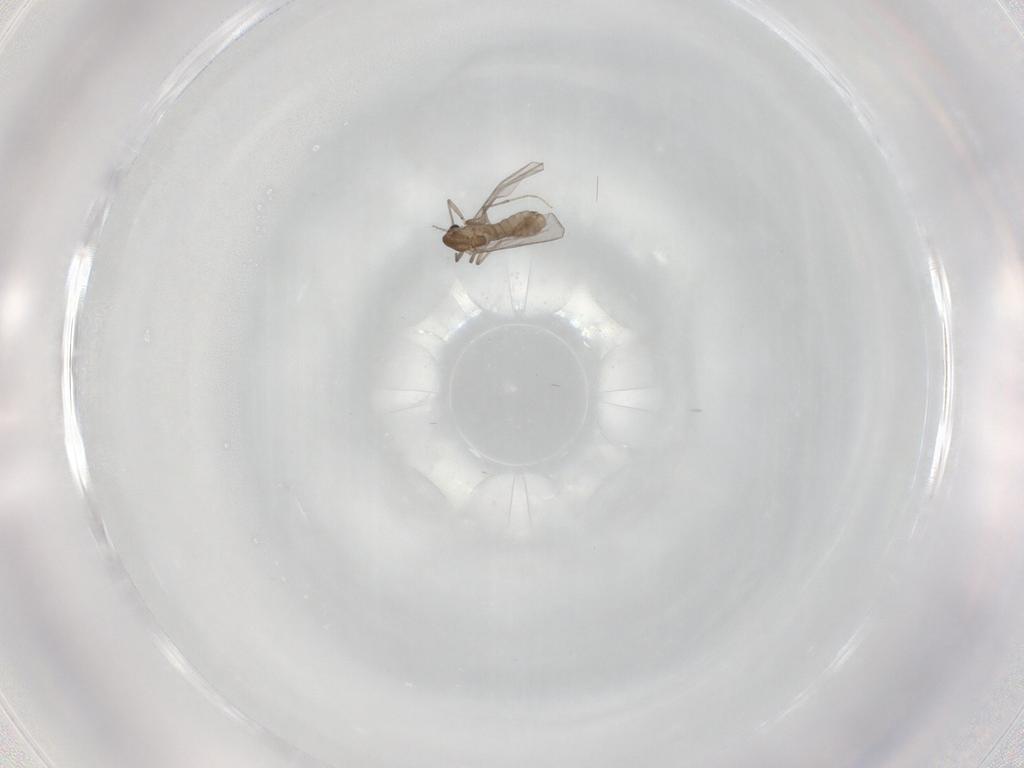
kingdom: Animalia
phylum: Arthropoda
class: Insecta
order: Diptera
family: Chironomidae
